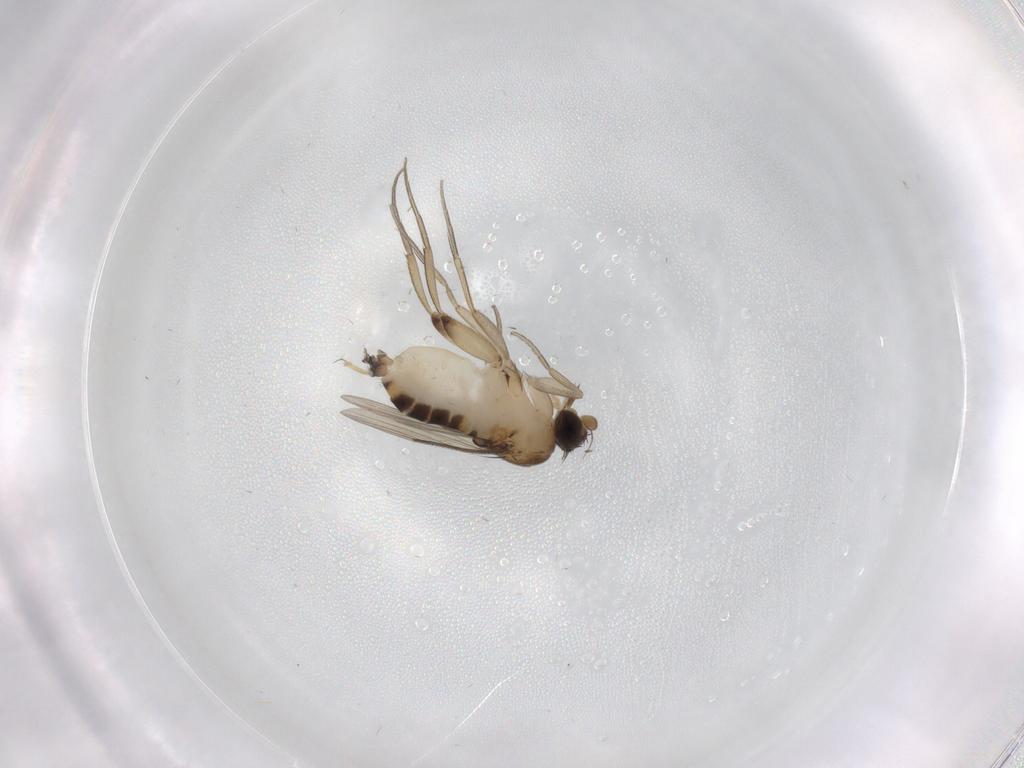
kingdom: Animalia
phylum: Arthropoda
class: Insecta
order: Diptera
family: Phoridae
